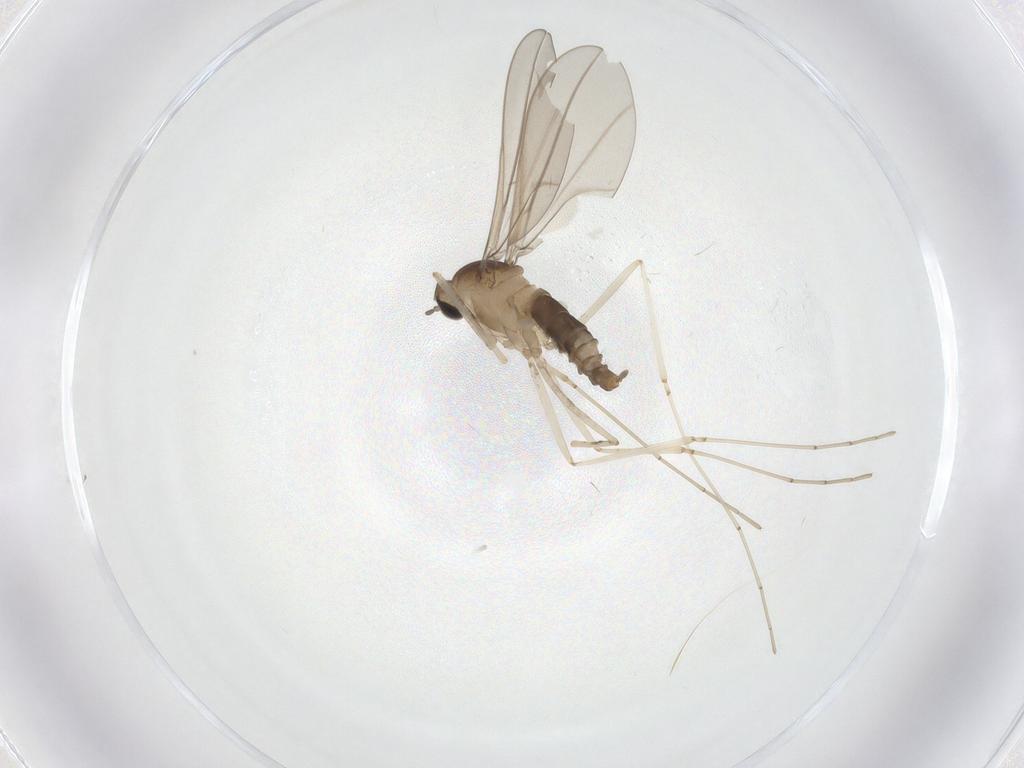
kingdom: Animalia
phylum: Arthropoda
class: Insecta
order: Diptera
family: Cecidomyiidae
